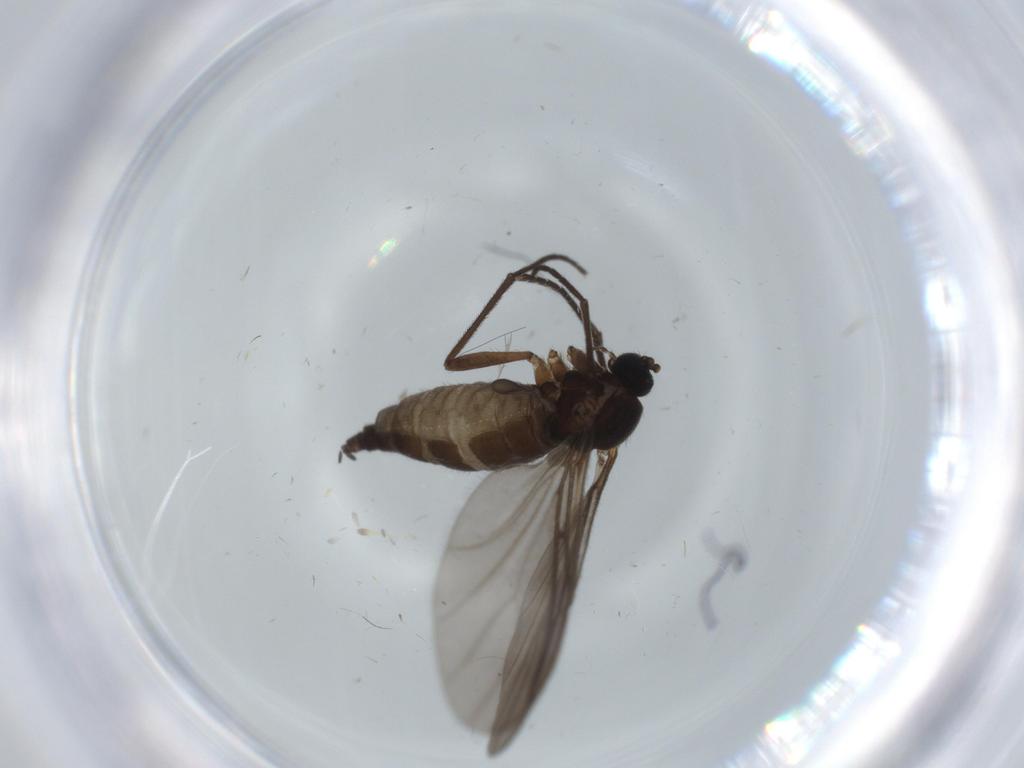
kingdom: Animalia
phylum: Arthropoda
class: Insecta
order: Diptera
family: Sciaridae
